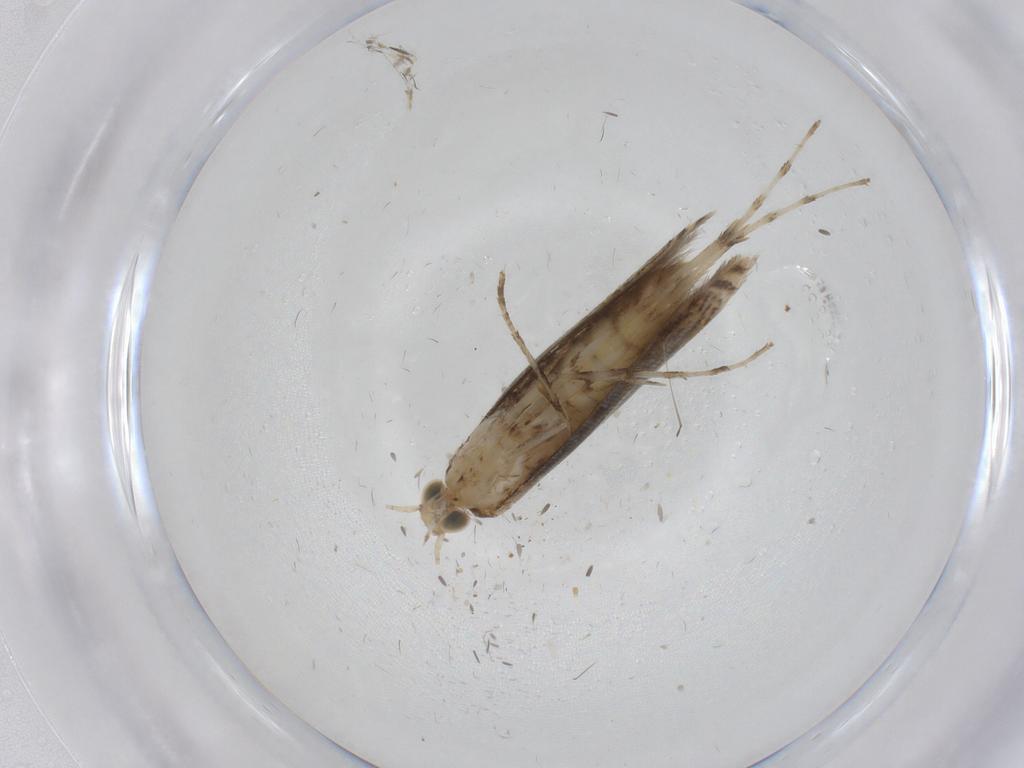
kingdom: Animalia
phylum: Arthropoda
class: Insecta
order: Lepidoptera
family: Gracillariidae
